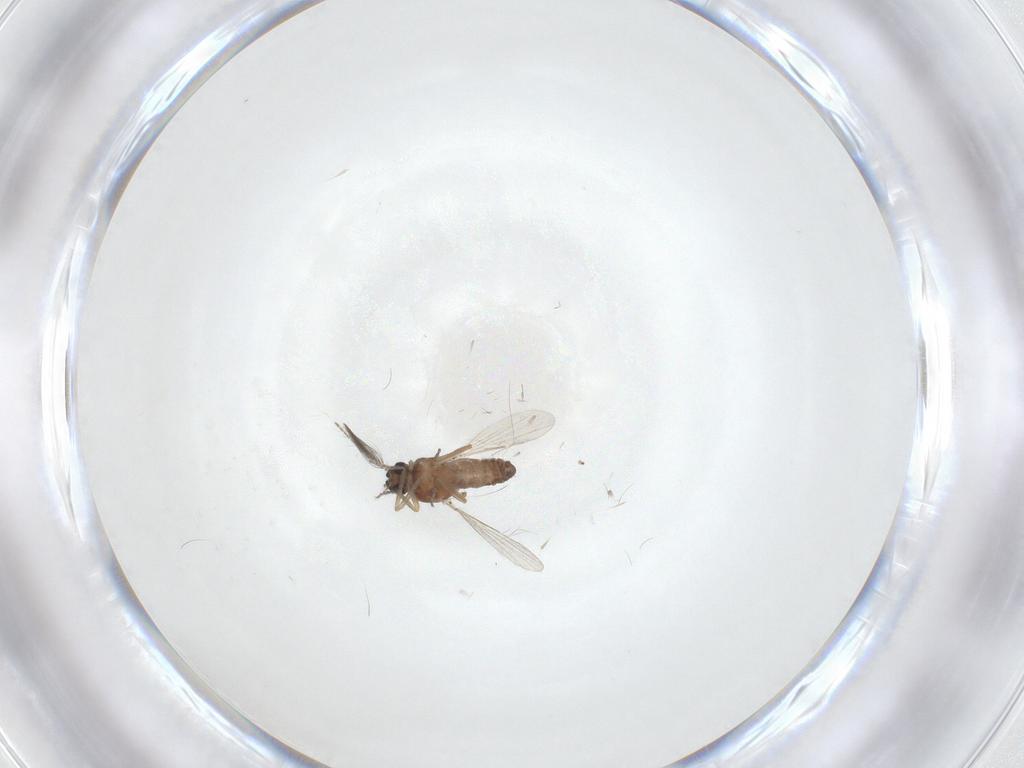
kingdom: Animalia
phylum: Arthropoda
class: Insecta
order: Diptera
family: Ceratopogonidae
